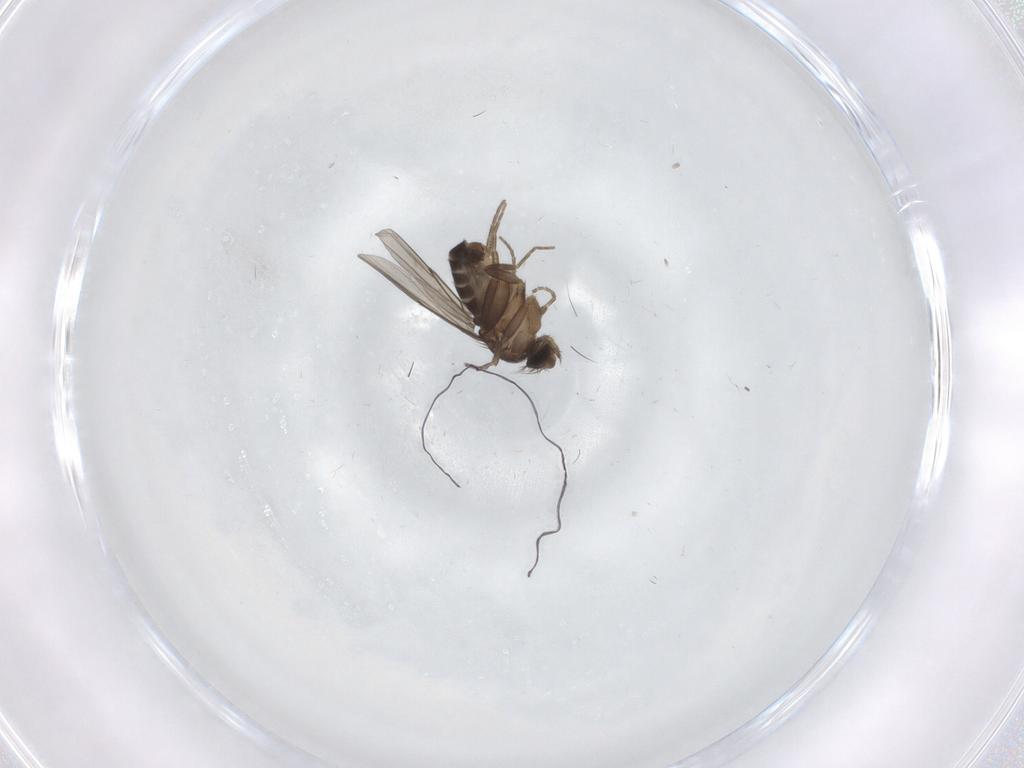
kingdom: Animalia
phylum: Arthropoda
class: Insecta
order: Diptera
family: Phoridae
